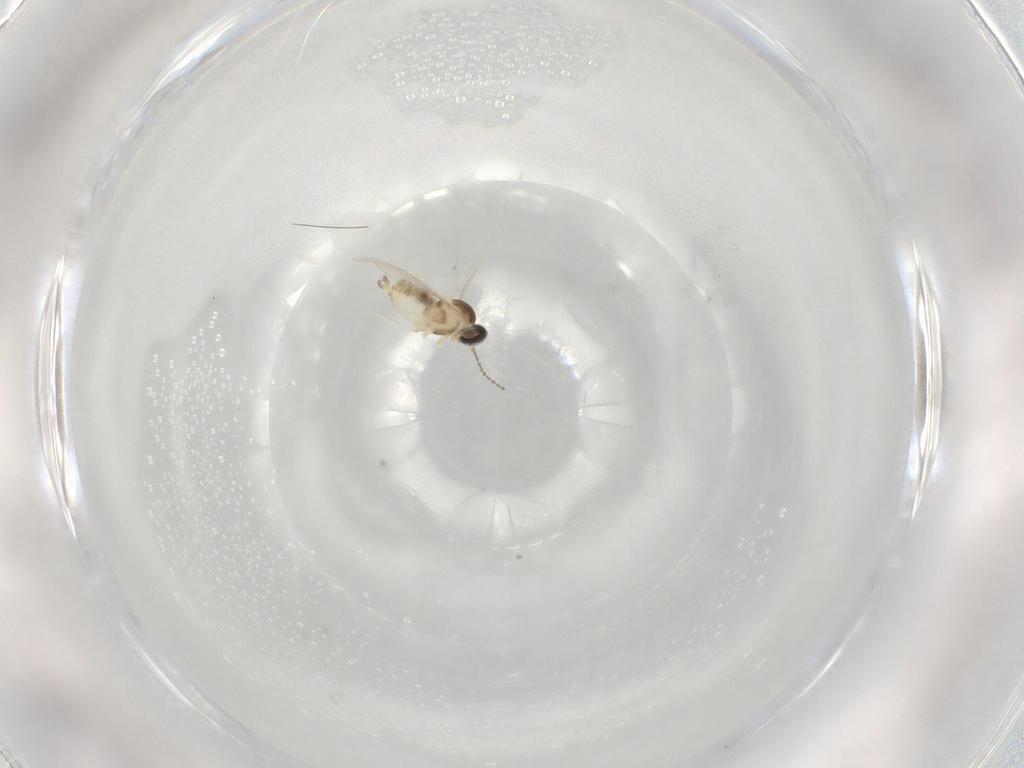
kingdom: Animalia
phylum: Arthropoda
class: Insecta
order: Diptera
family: Cecidomyiidae
